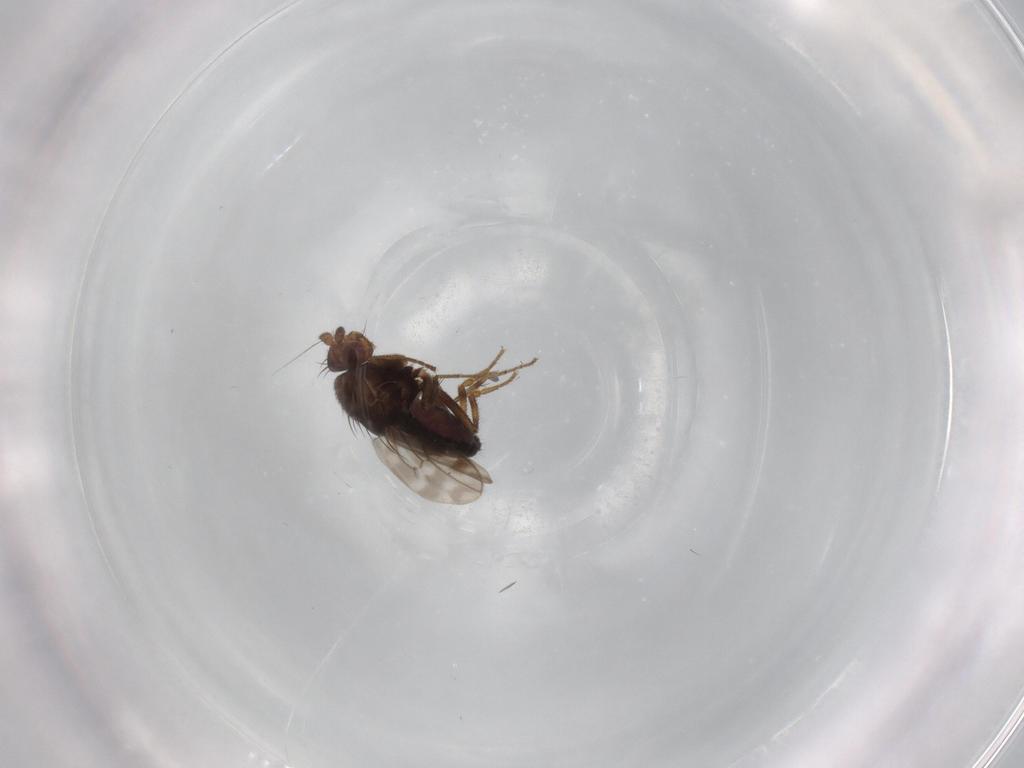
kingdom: Animalia
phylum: Arthropoda
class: Insecta
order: Diptera
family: Sphaeroceridae
